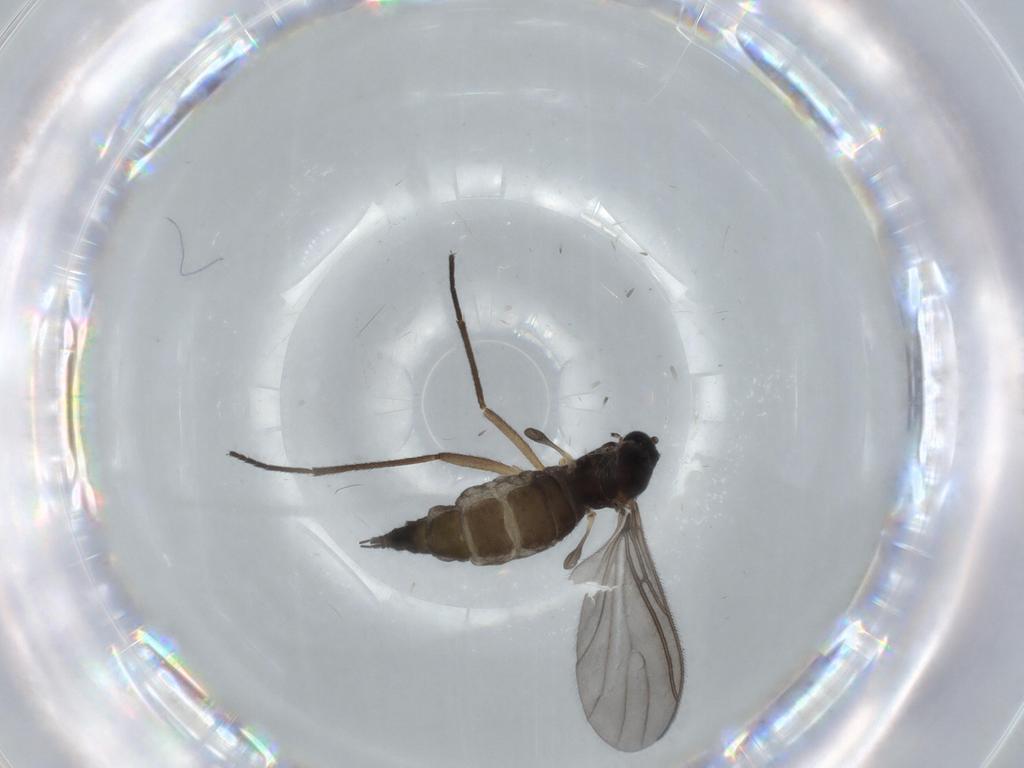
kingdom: Animalia
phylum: Arthropoda
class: Insecta
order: Diptera
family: Sciaridae
